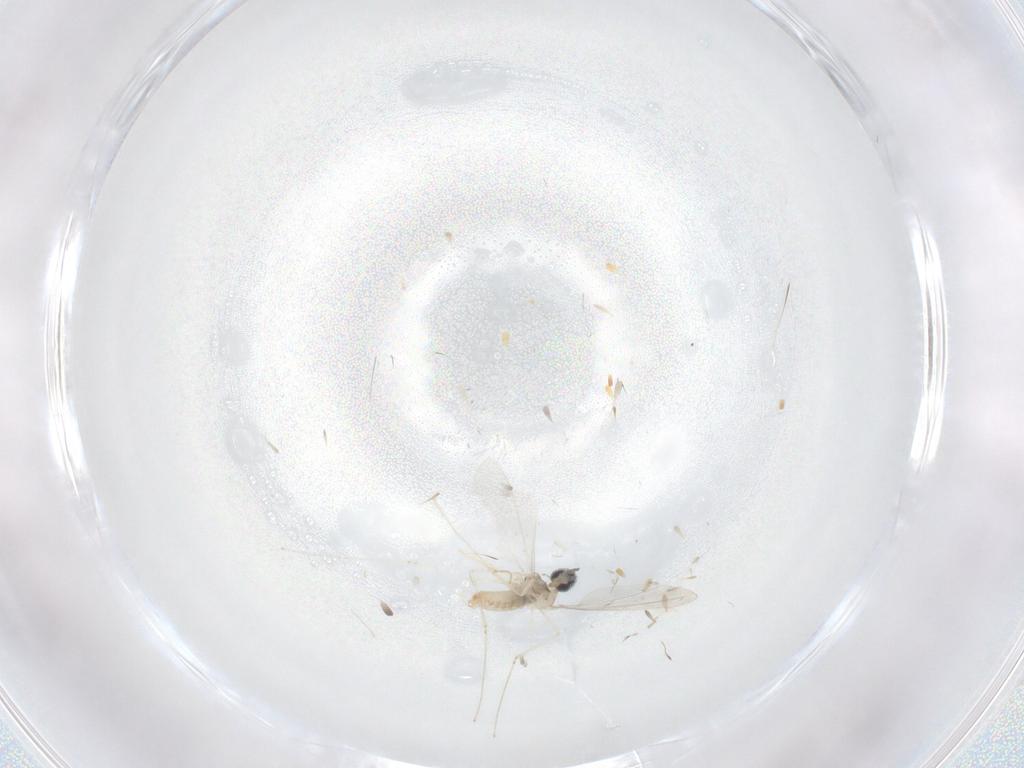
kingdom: Animalia
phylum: Arthropoda
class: Insecta
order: Diptera
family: Cecidomyiidae
